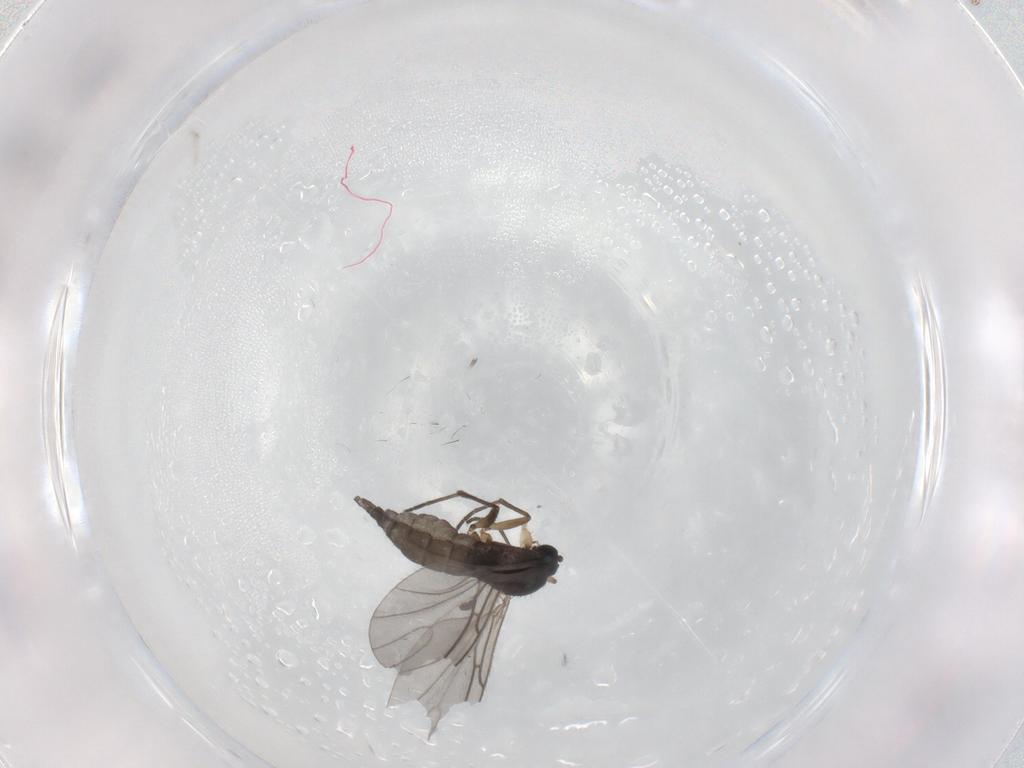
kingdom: Animalia
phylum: Arthropoda
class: Insecta
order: Diptera
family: Sciaridae
